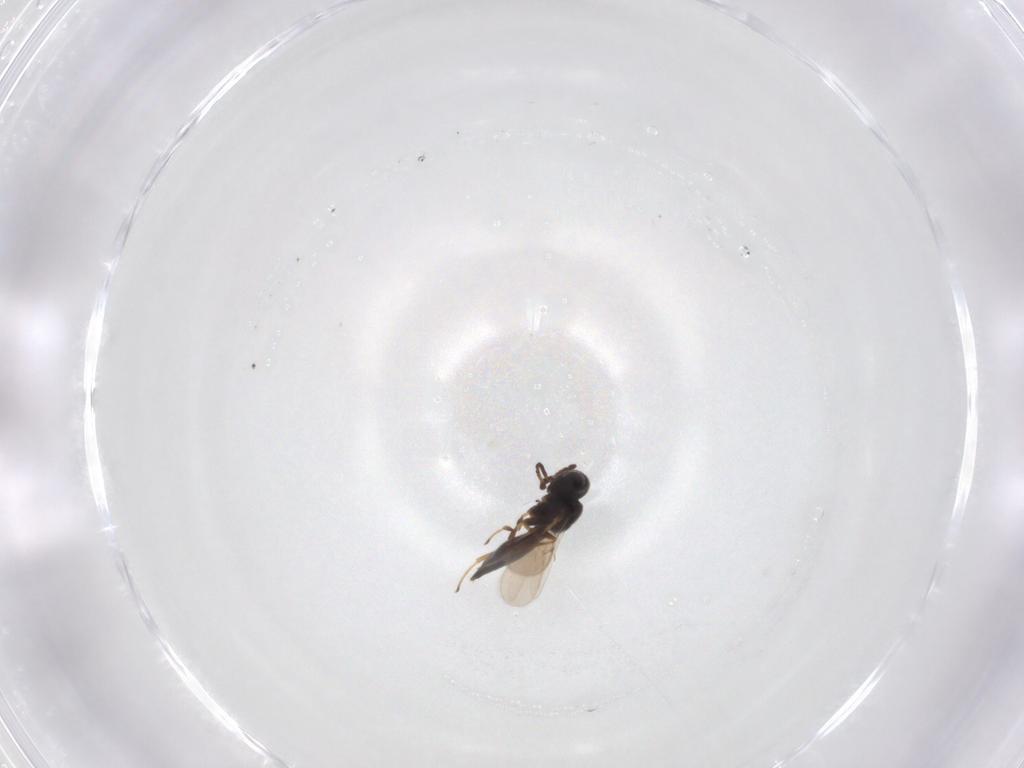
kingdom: Animalia
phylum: Arthropoda
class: Insecta
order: Hymenoptera
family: Scelionidae
